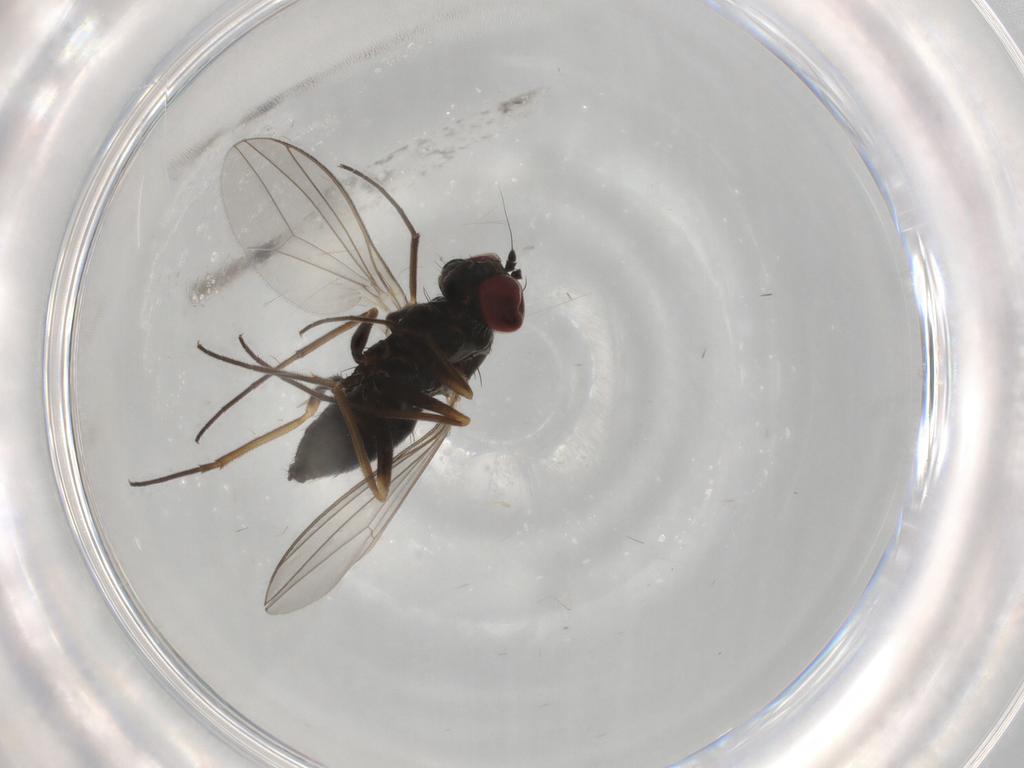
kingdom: Animalia
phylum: Arthropoda
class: Insecta
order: Diptera
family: Dolichopodidae
